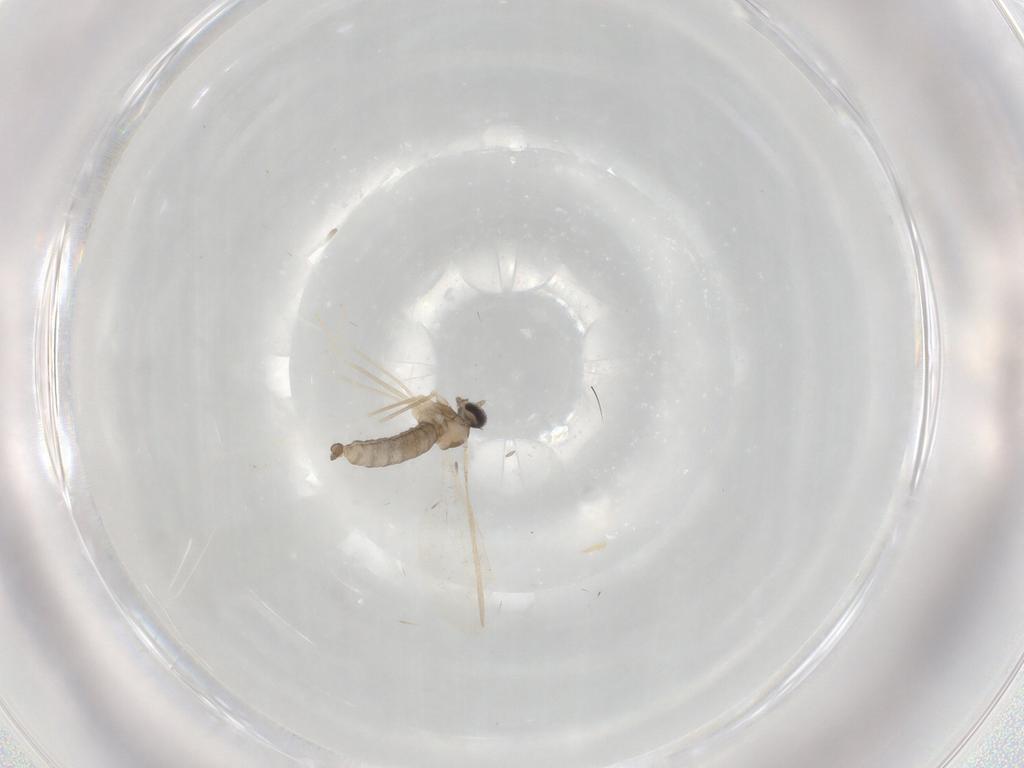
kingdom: Animalia
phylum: Arthropoda
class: Insecta
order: Diptera
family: Cecidomyiidae
